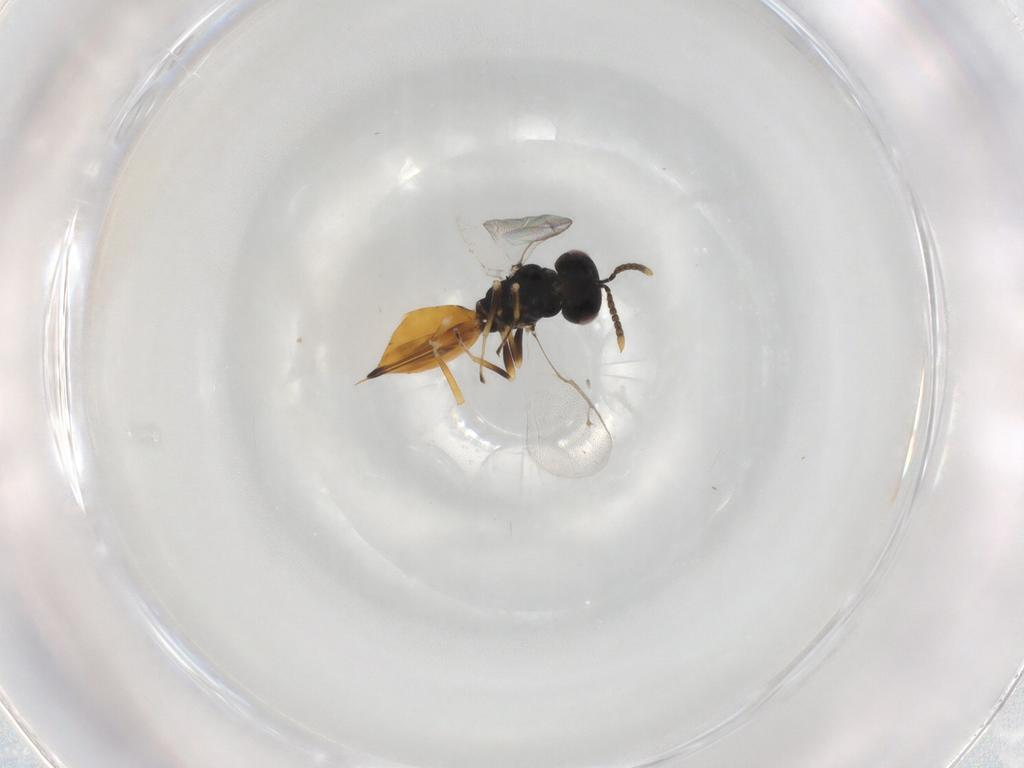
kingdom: Animalia
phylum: Arthropoda
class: Insecta
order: Hymenoptera
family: Pteromalidae
